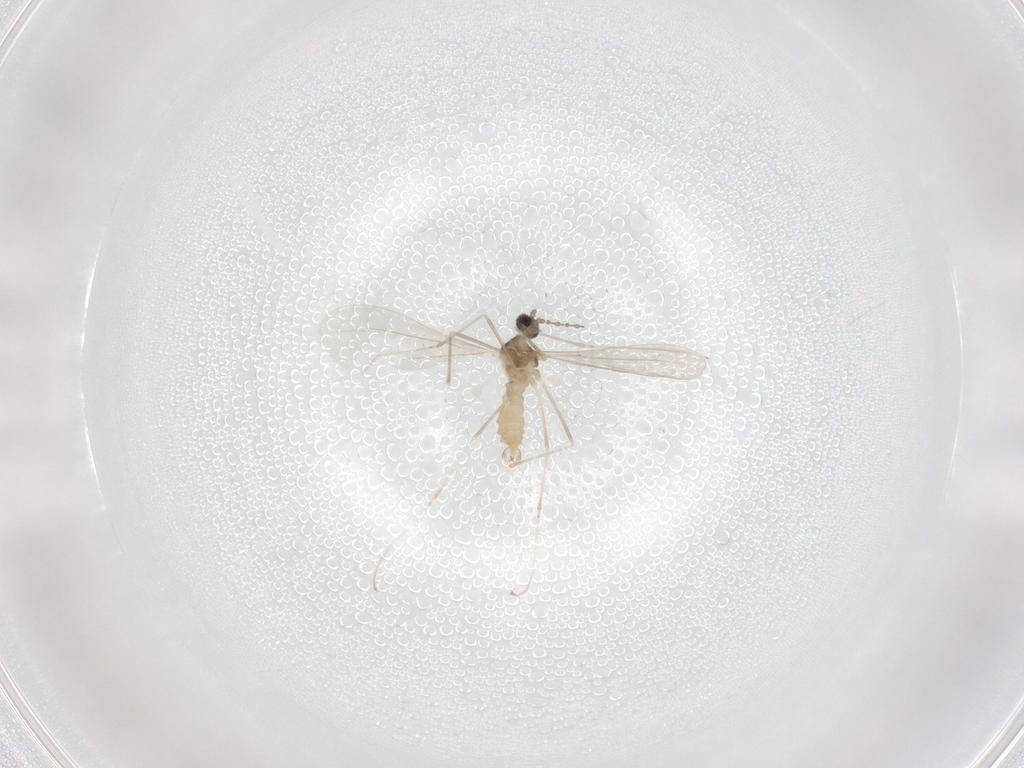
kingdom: Animalia
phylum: Arthropoda
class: Insecta
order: Diptera
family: Cecidomyiidae
